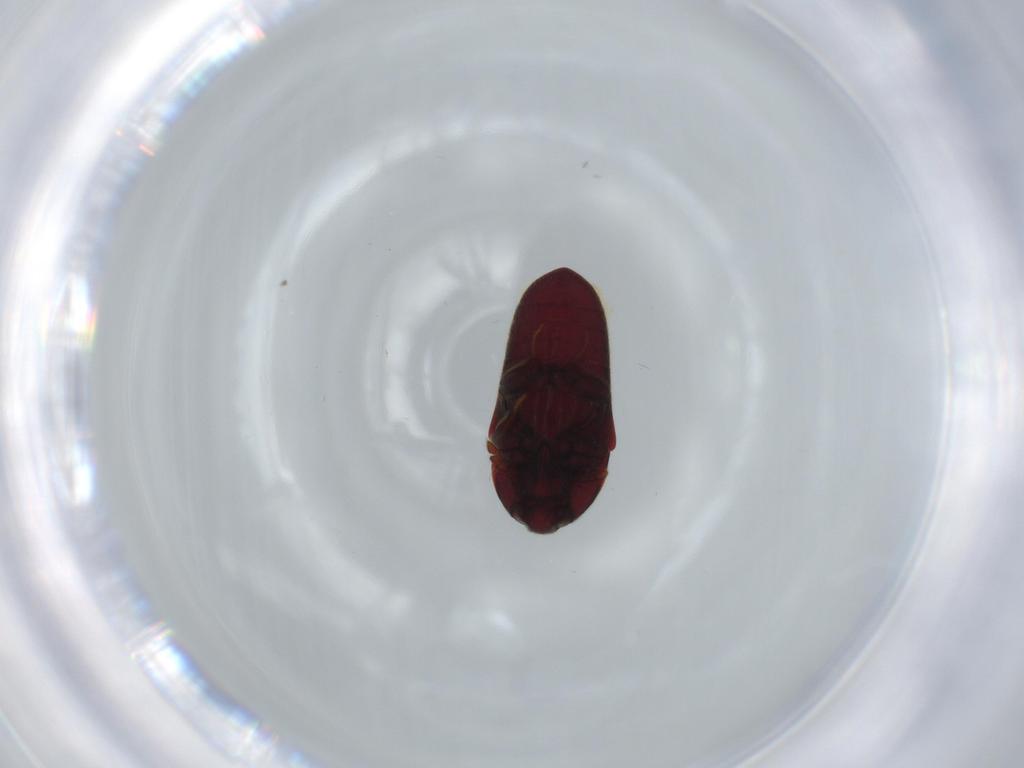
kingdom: Animalia
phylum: Arthropoda
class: Insecta
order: Coleoptera
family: Throscidae
